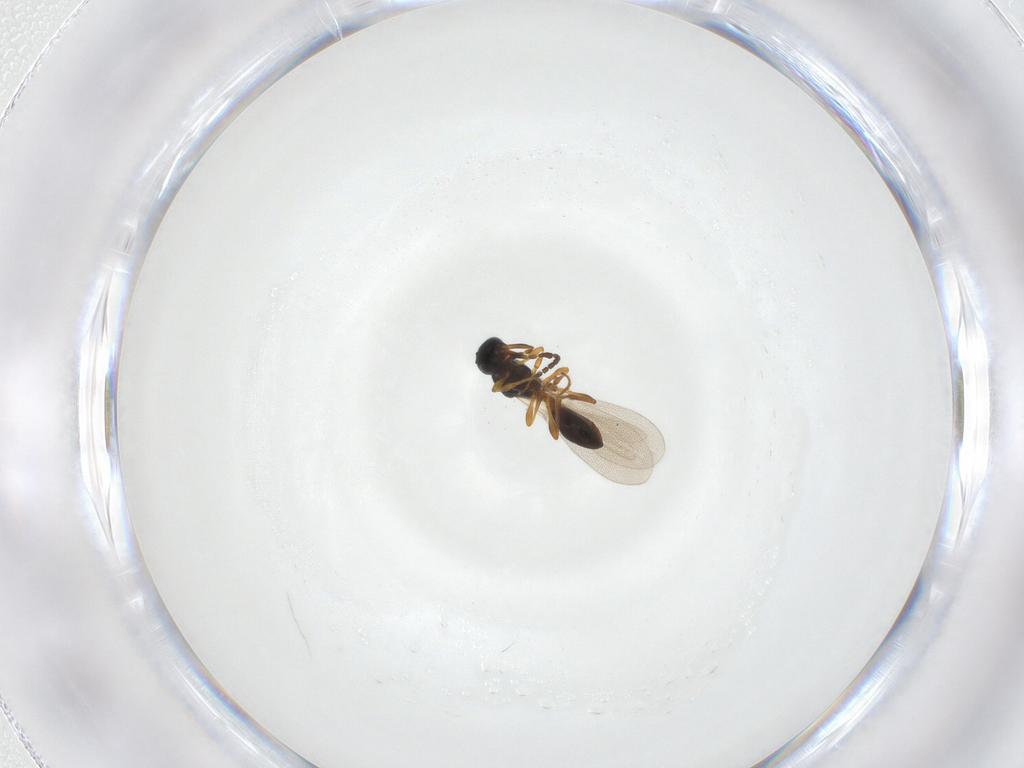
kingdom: Animalia
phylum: Arthropoda
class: Insecta
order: Hymenoptera
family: Platygastridae
